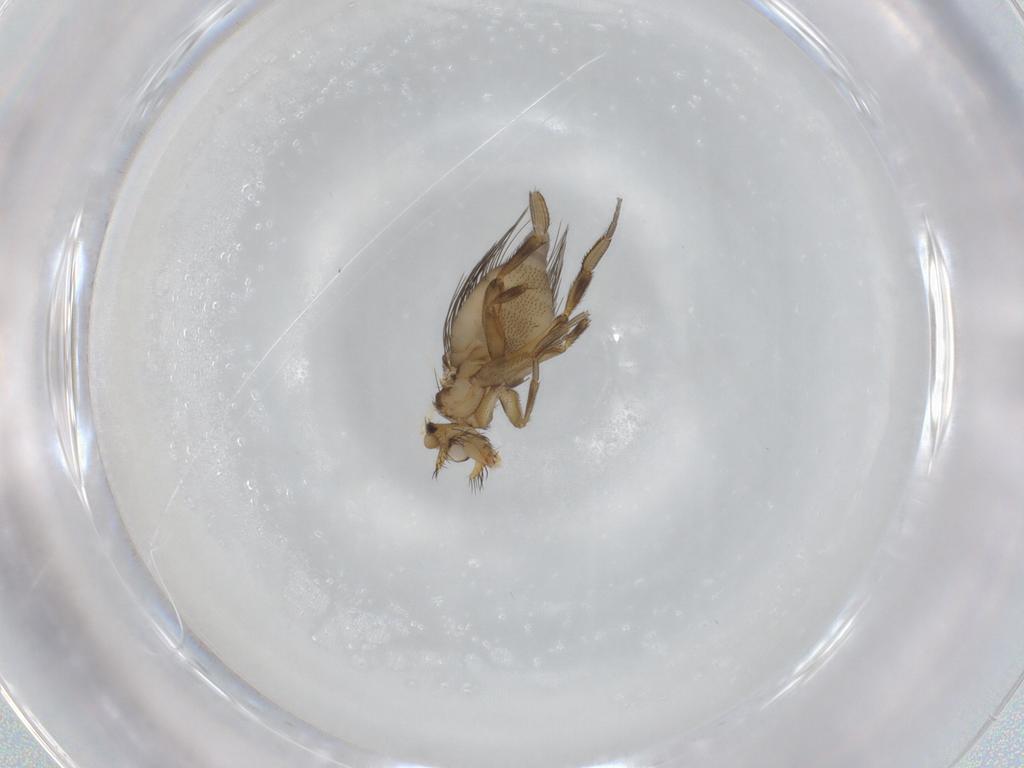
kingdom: Animalia
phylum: Arthropoda
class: Insecta
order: Diptera
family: Phoridae
